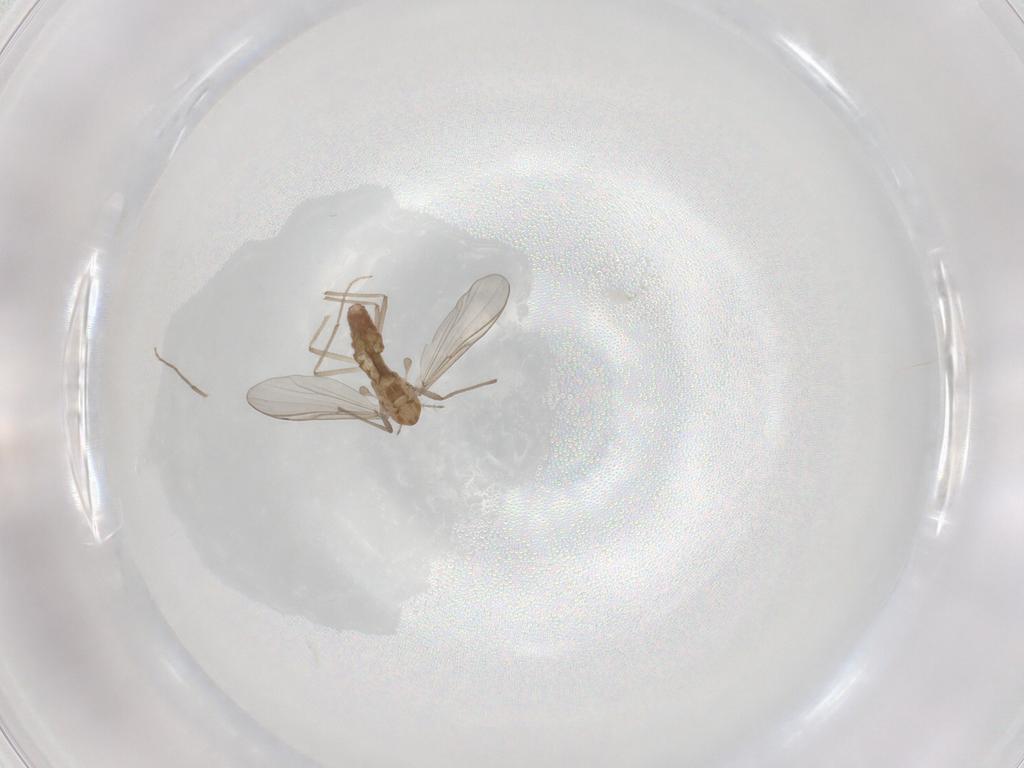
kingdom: Animalia
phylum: Arthropoda
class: Insecta
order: Diptera
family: Chironomidae
